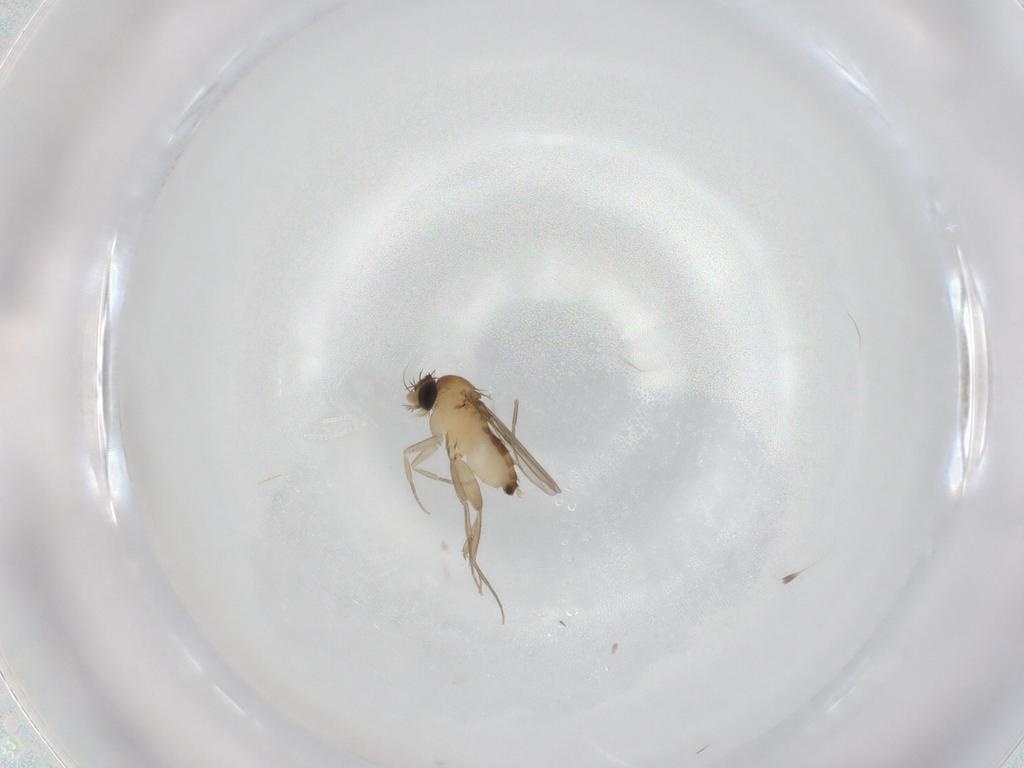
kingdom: Animalia
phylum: Arthropoda
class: Insecta
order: Diptera
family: Phoridae
